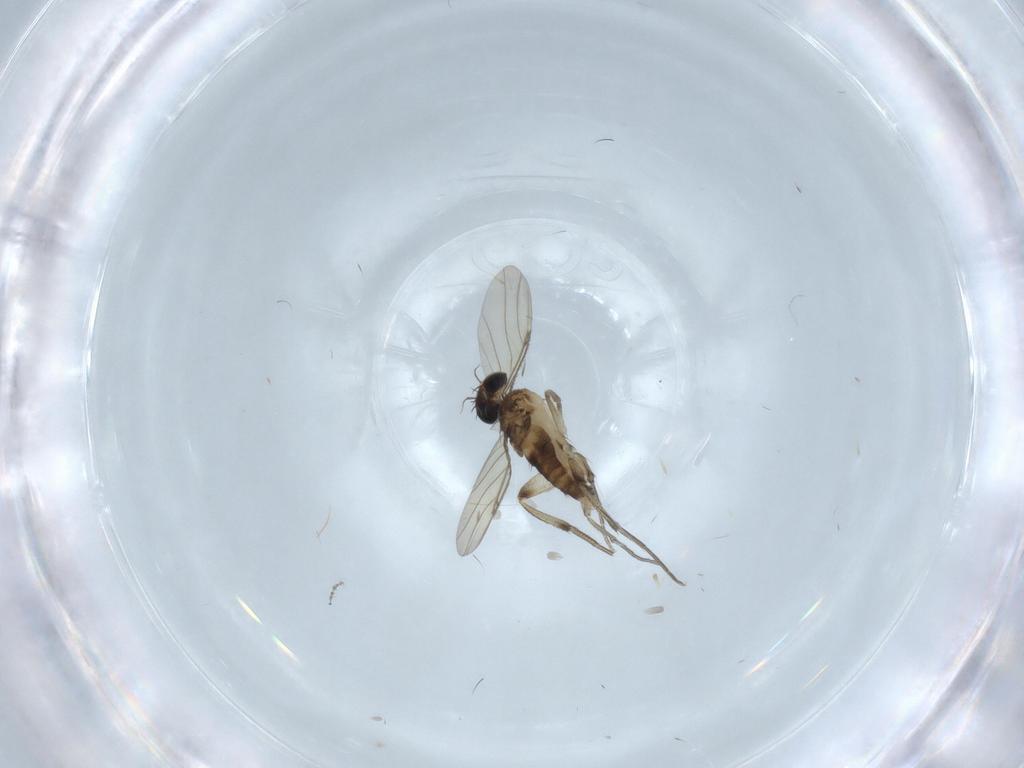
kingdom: Animalia
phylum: Arthropoda
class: Insecta
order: Diptera
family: Phoridae
